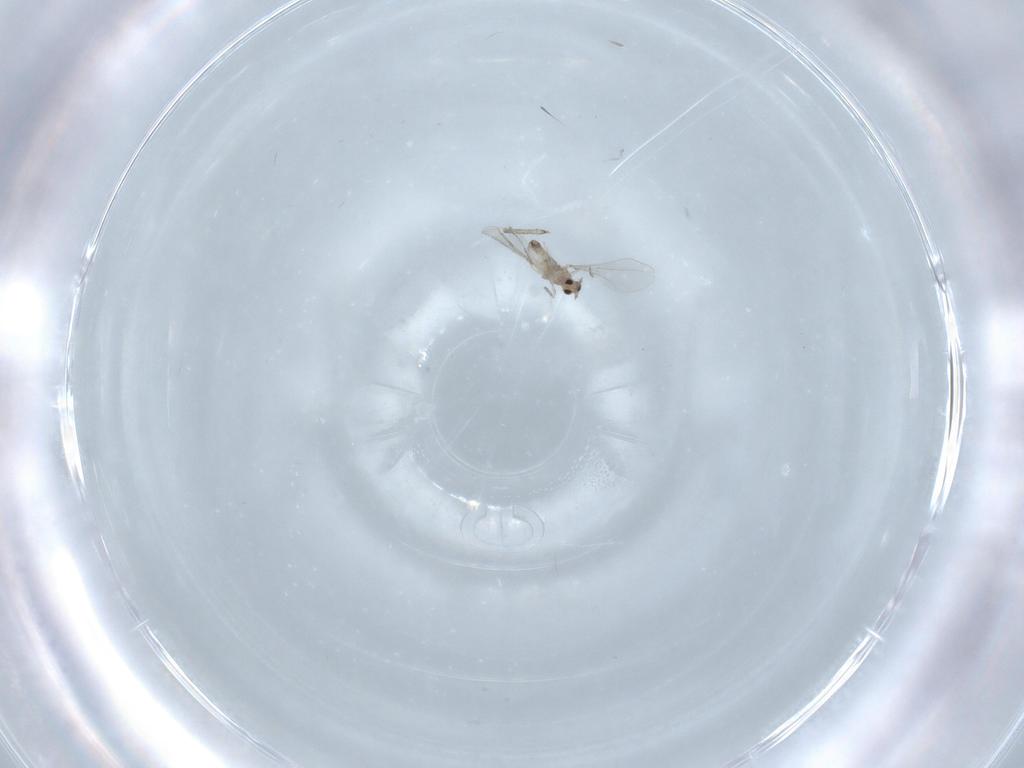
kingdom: Animalia
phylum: Arthropoda
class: Insecta
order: Diptera
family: Cecidomyiidae
